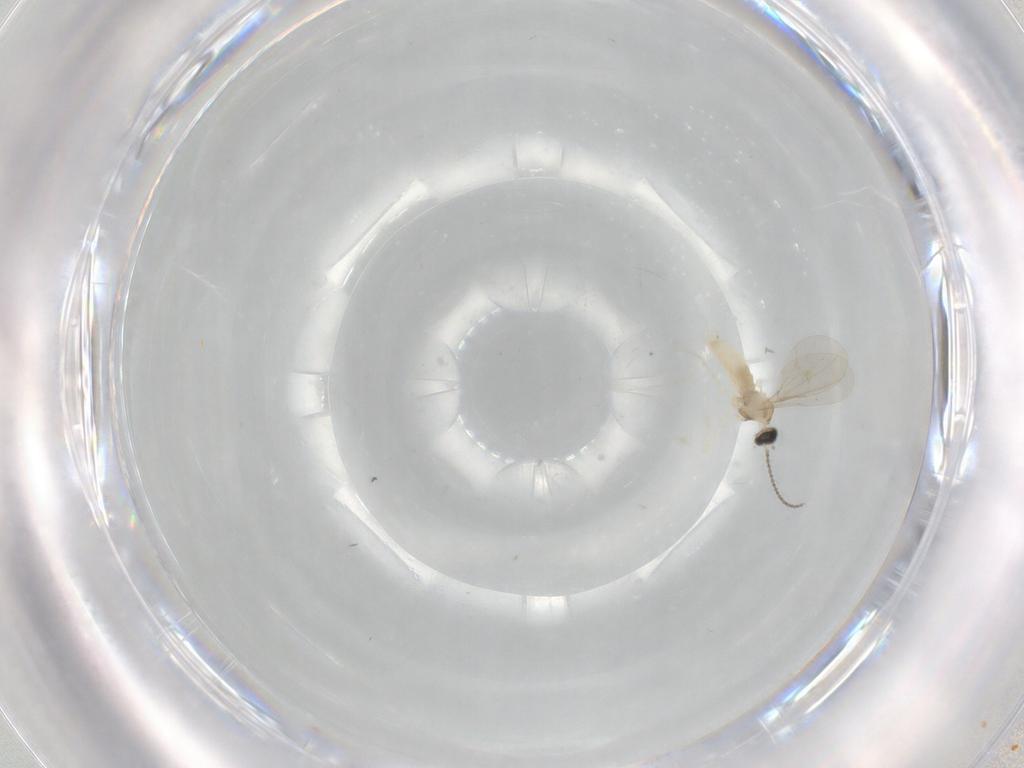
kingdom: Animalia
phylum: Arthropoda
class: Insecta
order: Diptera
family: Cecidomyiidae
